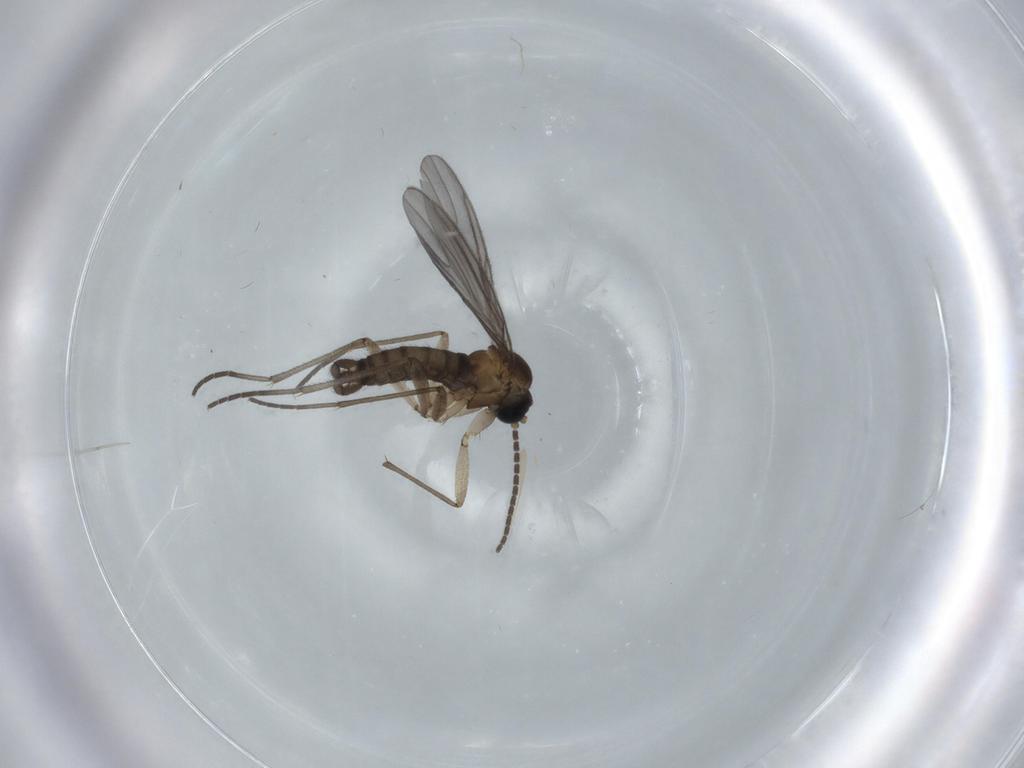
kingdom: Animalia
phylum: Arthropoda
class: Insecta
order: Diptera
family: Sciaridae
